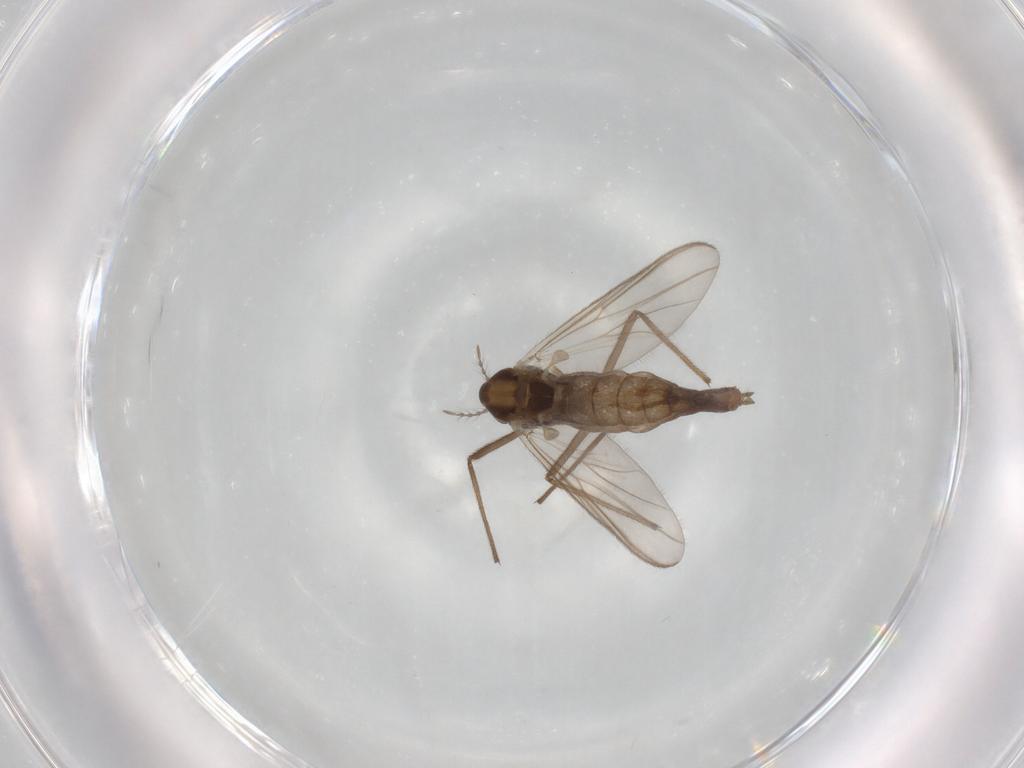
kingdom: Animalia
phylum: Arthropoda
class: Insecta
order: Diptera
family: Chironomidae
